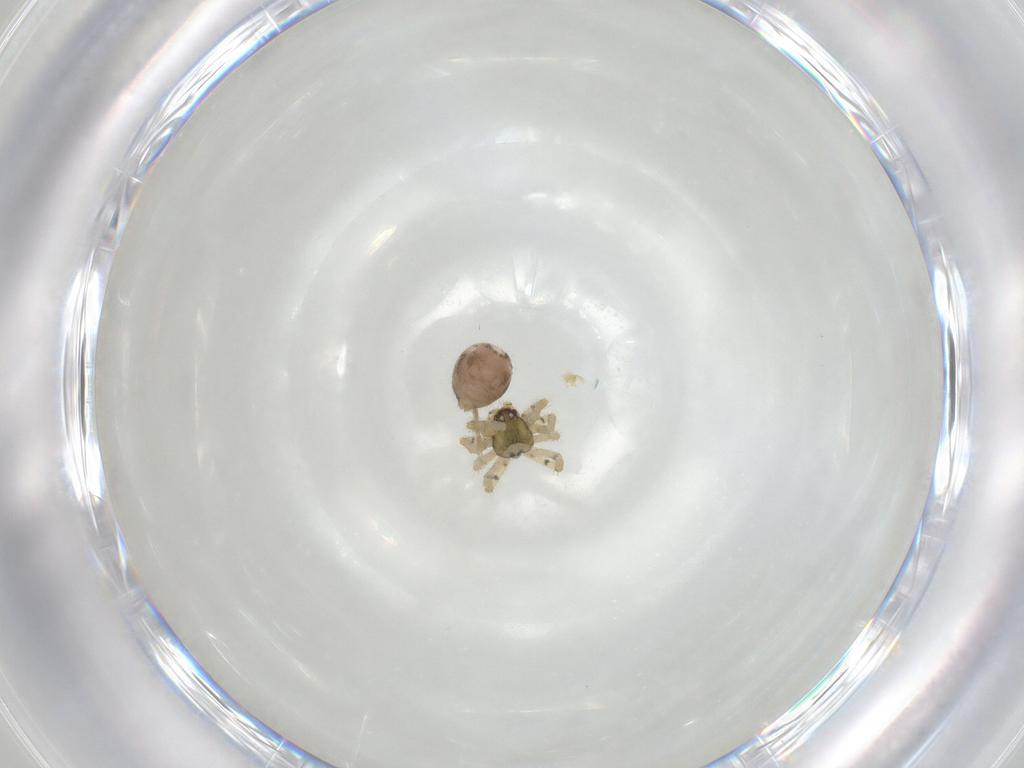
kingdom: Animalia
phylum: Arthropoda
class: Arachnida
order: Araneae
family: Theridiidae
